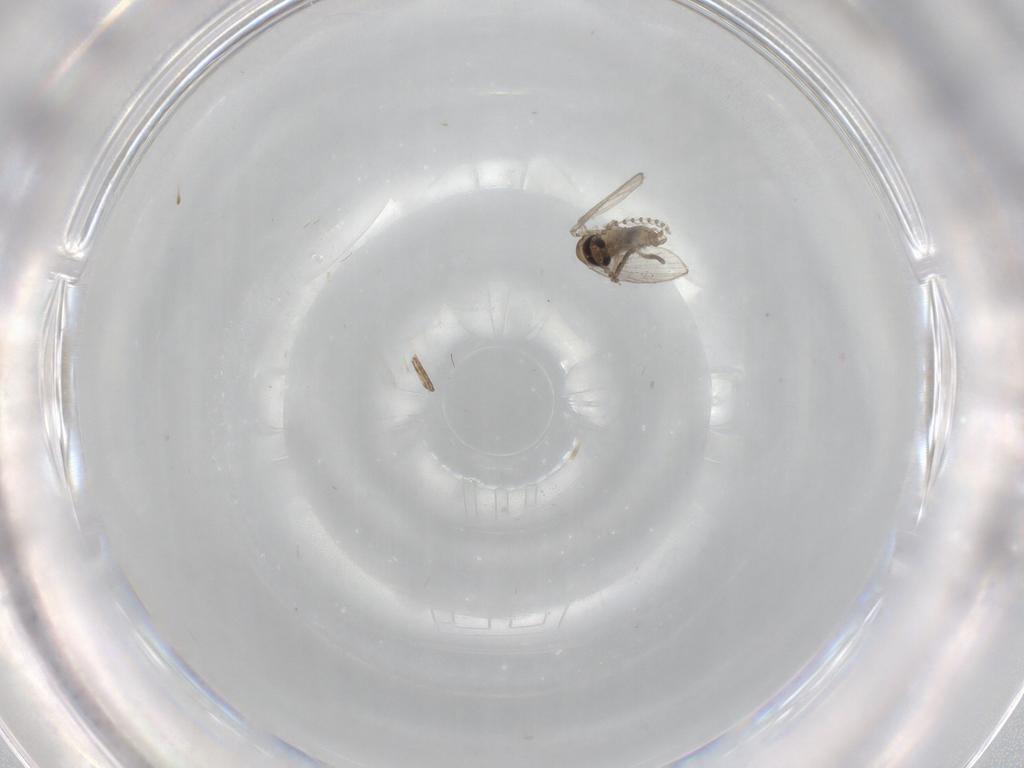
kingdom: Animalia
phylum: Arthropoda
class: Insecta
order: Diptera
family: Psychodidae
